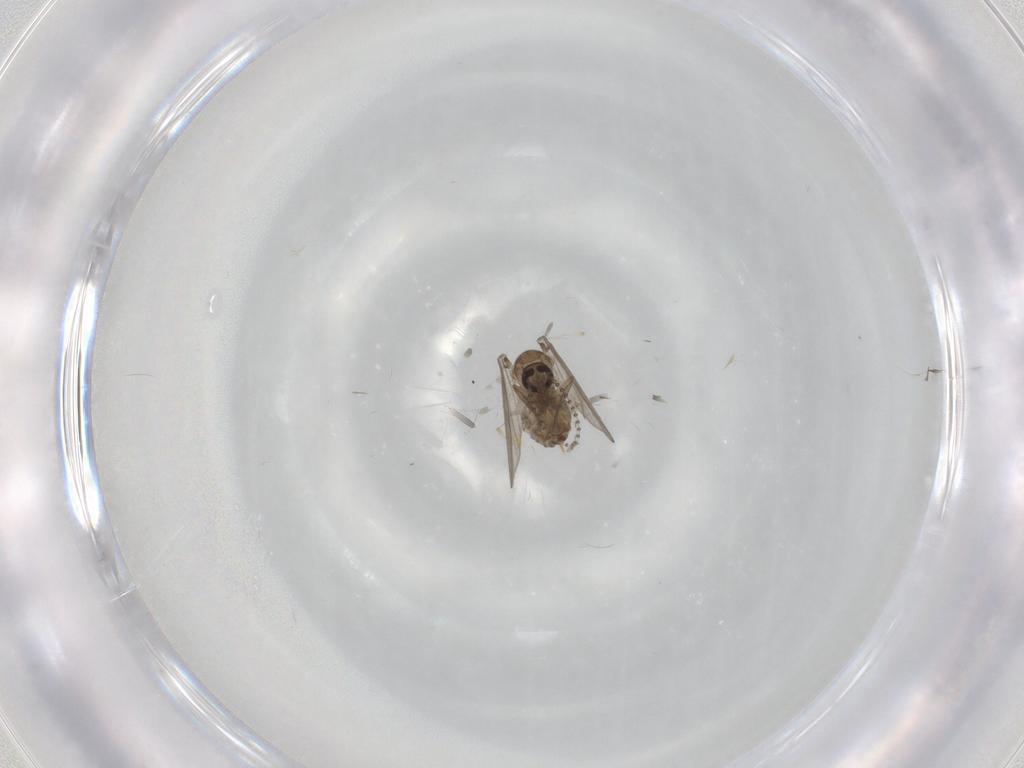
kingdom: Animalia
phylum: Arthropoda
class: Insecta
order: Diptera
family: Psychodidae
